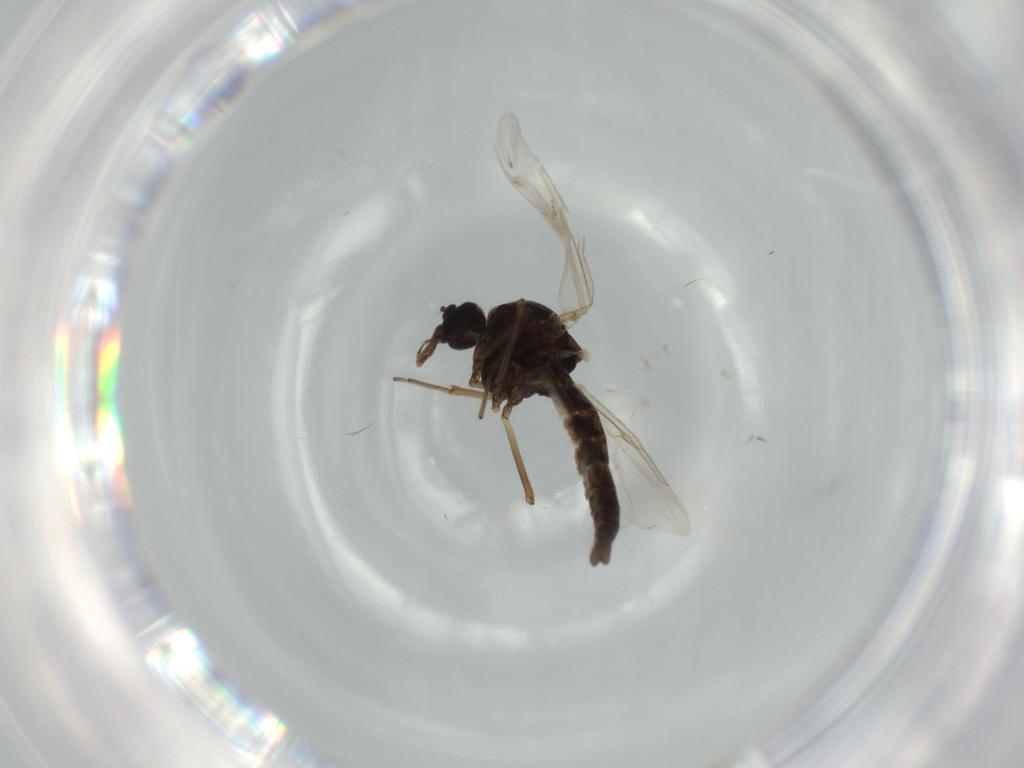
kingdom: Animalia
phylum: Arthropoda
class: Insecta
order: Diptera
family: Ceratopogonidae
